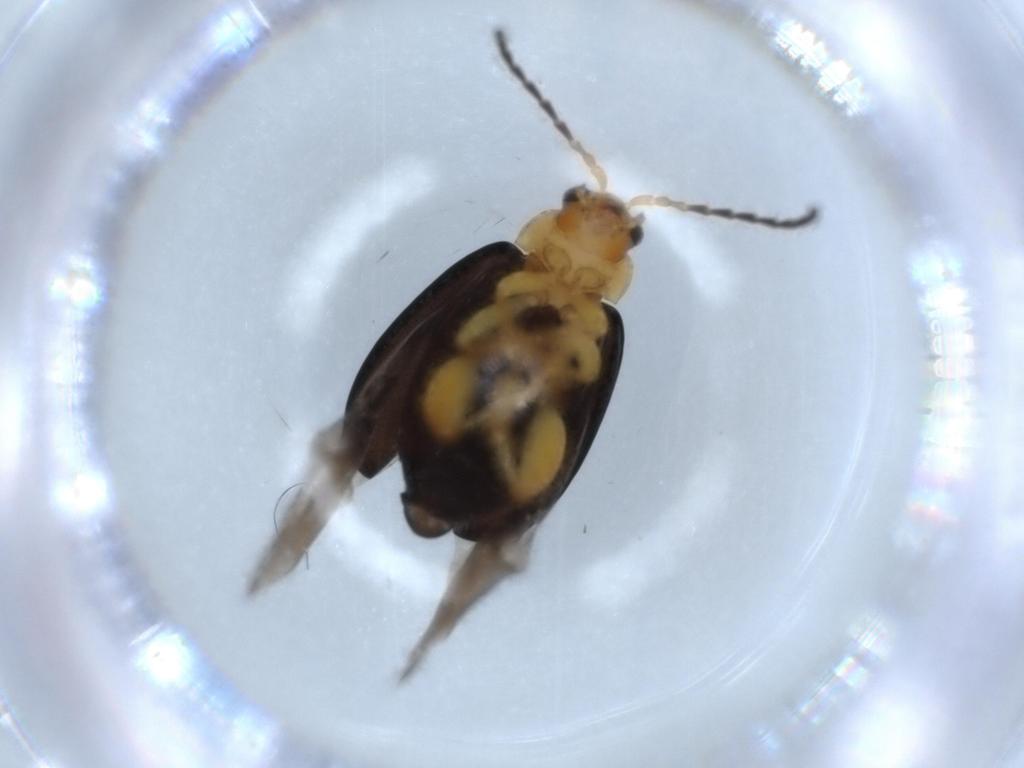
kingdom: Animalia
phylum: Arthropoda
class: Insecta
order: Coleoptera
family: Chrysomelidae
